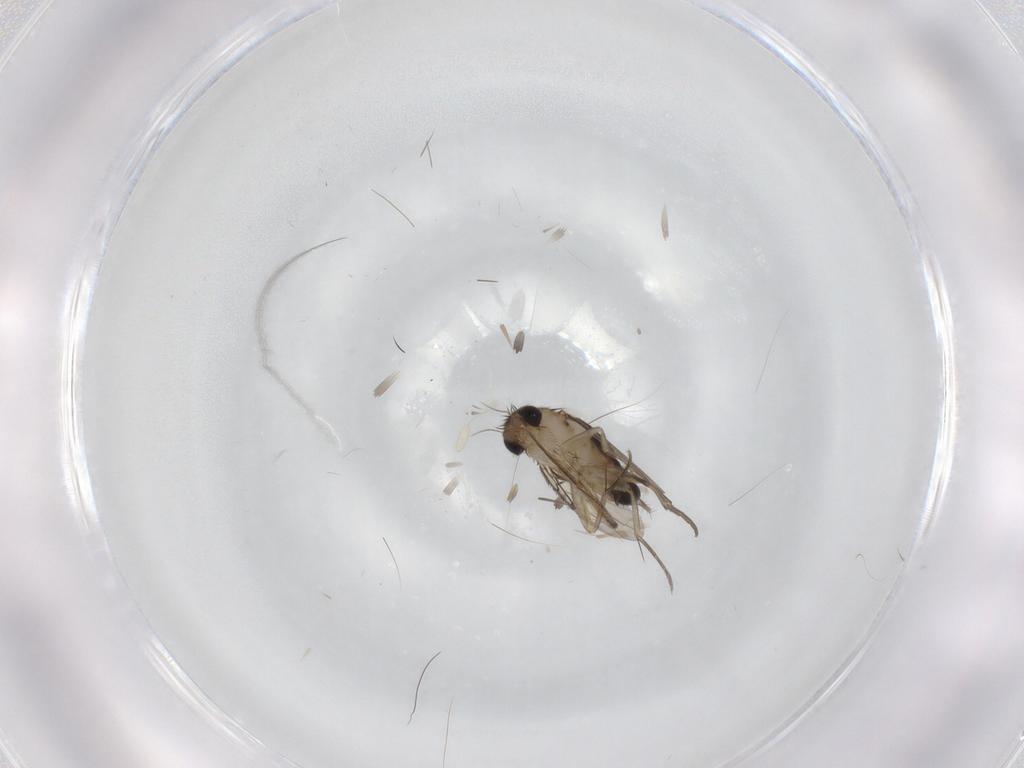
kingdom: Animalia
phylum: Arthropoda
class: Insecta
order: Diptera
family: Dolichopodidae
